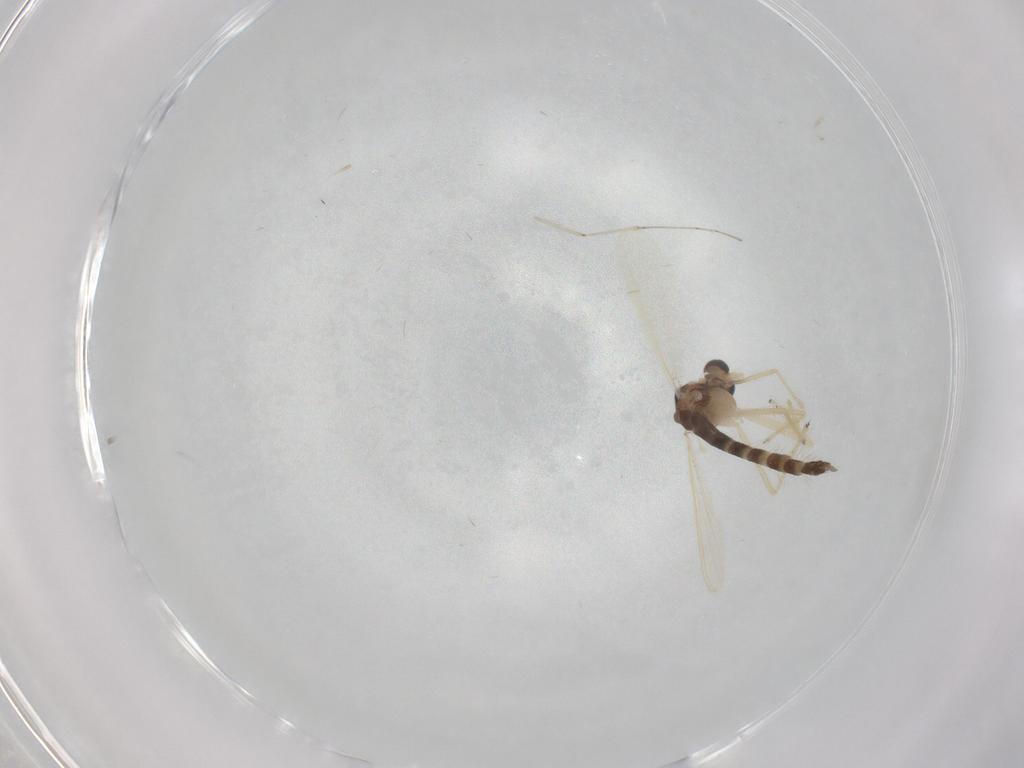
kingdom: Animalia
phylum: Arthropoda
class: Insecta
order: Diptera
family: Chironomidae
